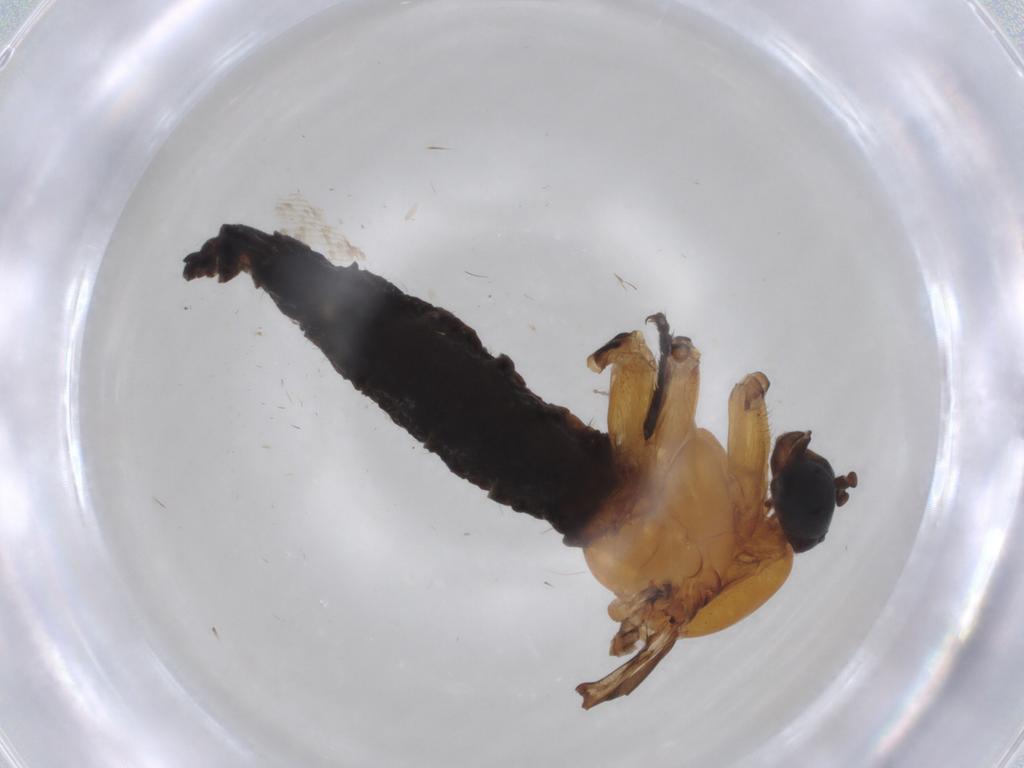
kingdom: Animalia
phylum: Arthropoda
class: Insecta
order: Diptera
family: Sciaridae
